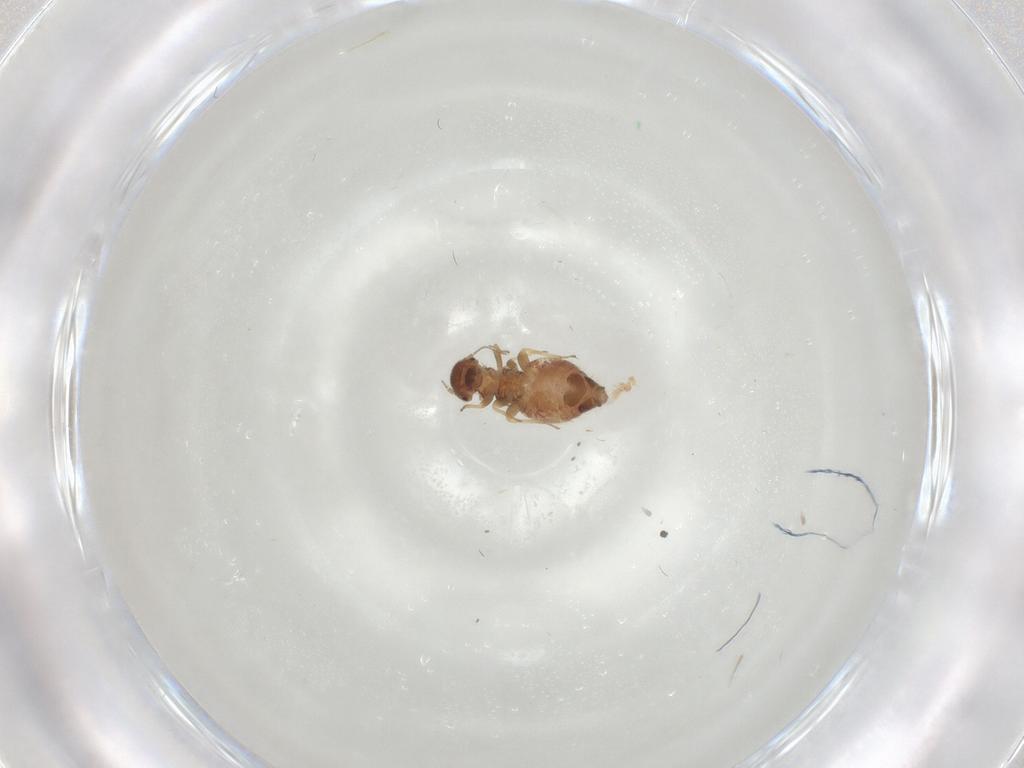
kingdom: Animalia
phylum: Arthropoda
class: Insecta
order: Psocodea
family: Archipsocidae
